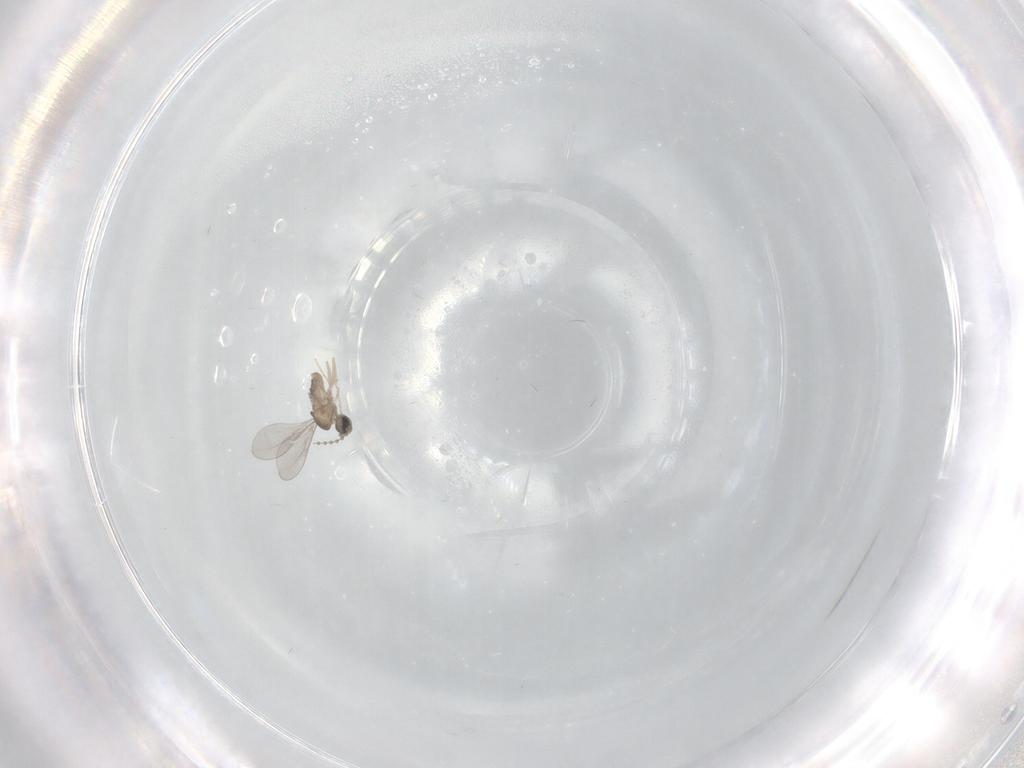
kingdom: Animalia
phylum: Arthropoda
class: Insecta
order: Diptera
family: Cecidomyiidae
